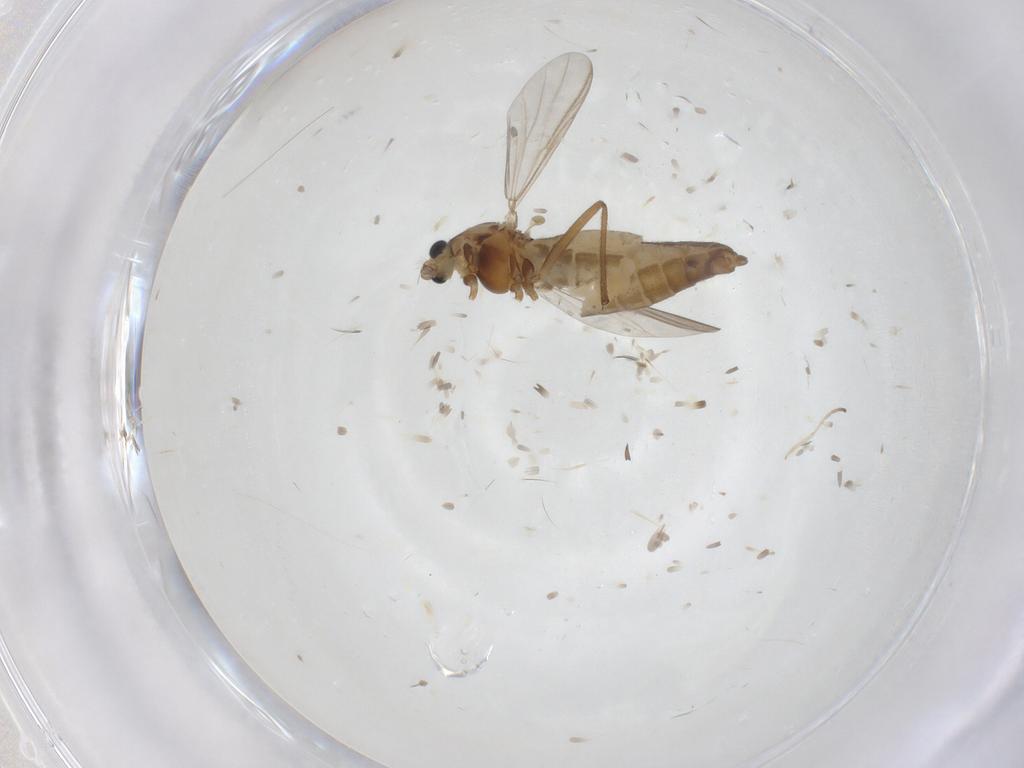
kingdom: Animalia
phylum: Arthropoda
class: Insecta
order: Diptera
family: Chironomidae
